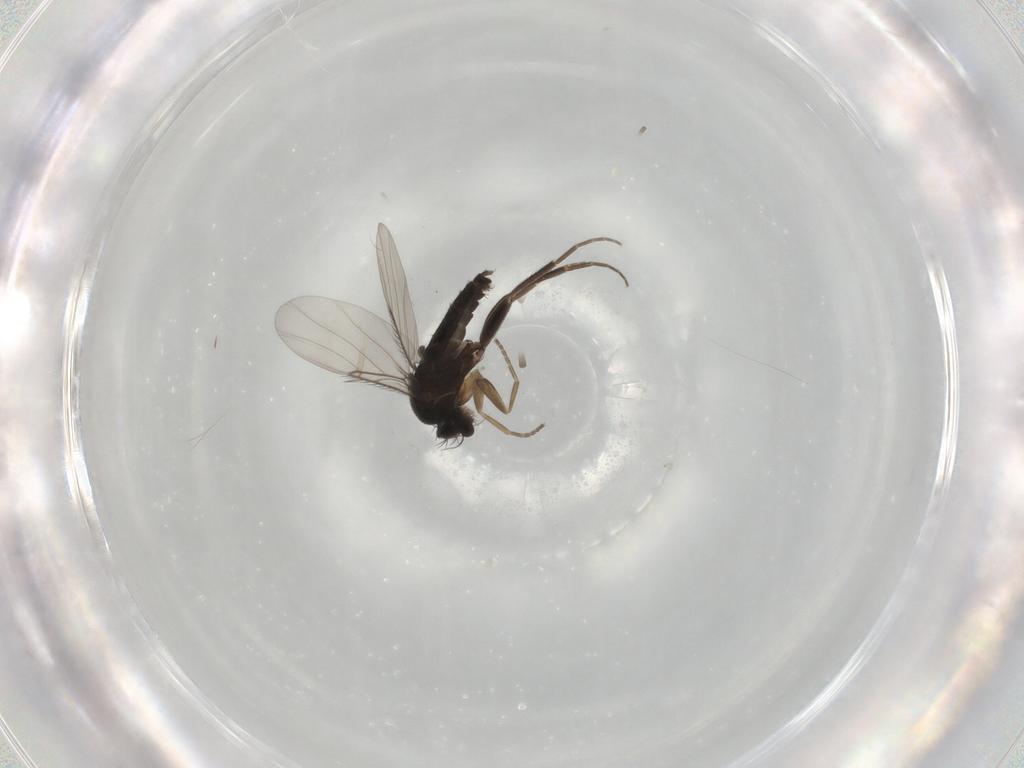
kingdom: Animalia
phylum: Arthropoda
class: Insecta
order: Diptera
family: Phoridae
